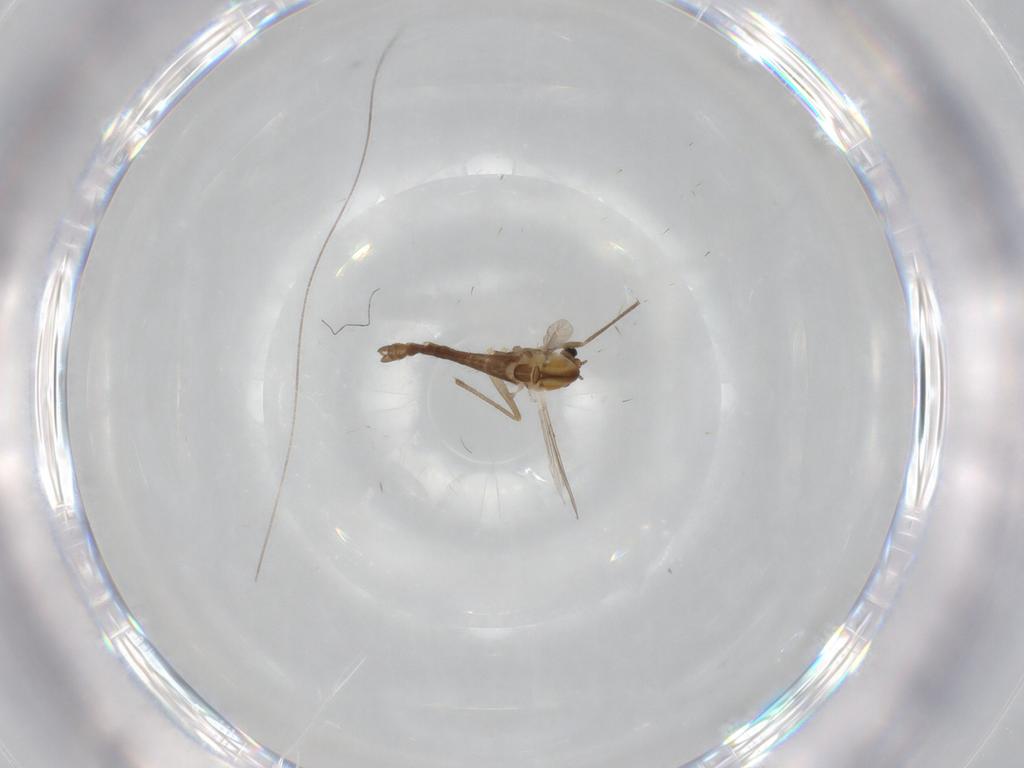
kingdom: Animalia
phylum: Arthropoda
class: Insecta
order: Diptera
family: Chironomidae
